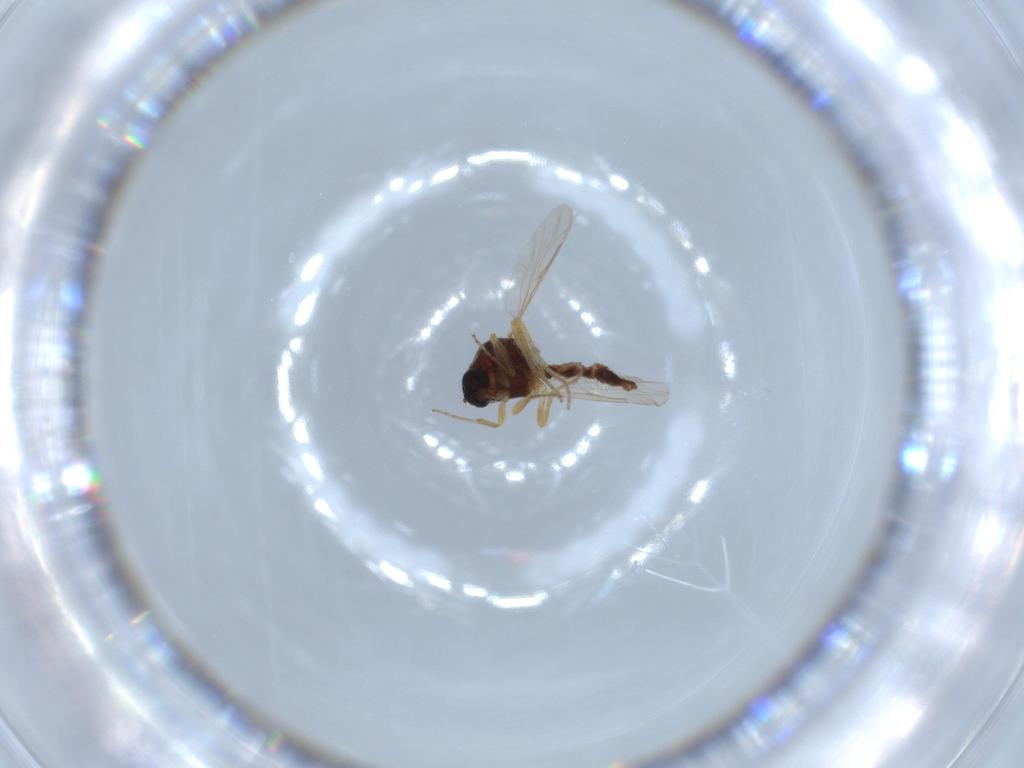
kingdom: Animalia
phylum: Arthropoda
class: Insecta
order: Diptera
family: Ceratopogonidae
